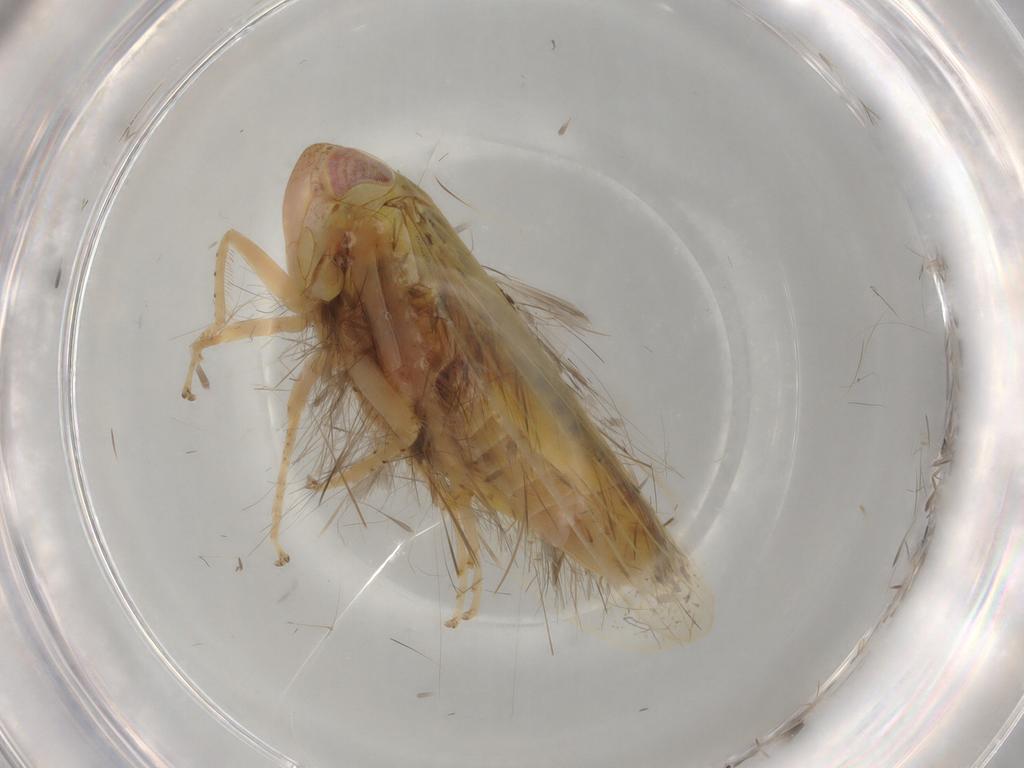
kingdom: Animalia
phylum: Arthropoda
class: Insecta
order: Hemiptera
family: Cicadellidae
